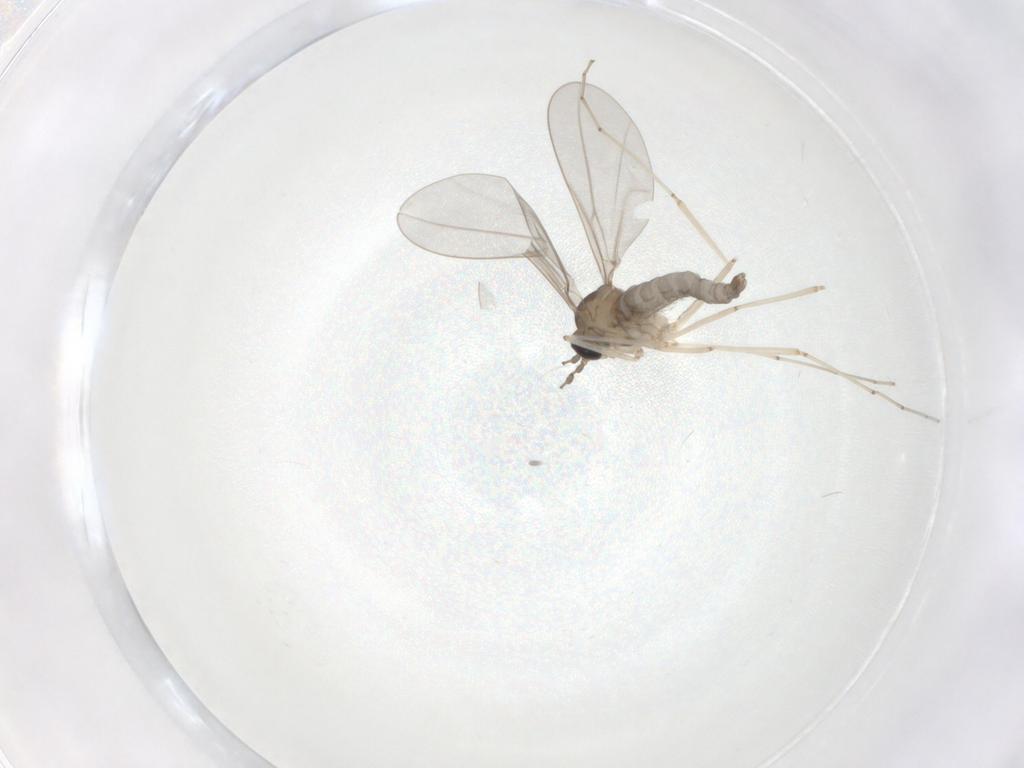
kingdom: Animalia
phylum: Arthropoda
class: Insecta
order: Diptera
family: Cecidomyiidae
